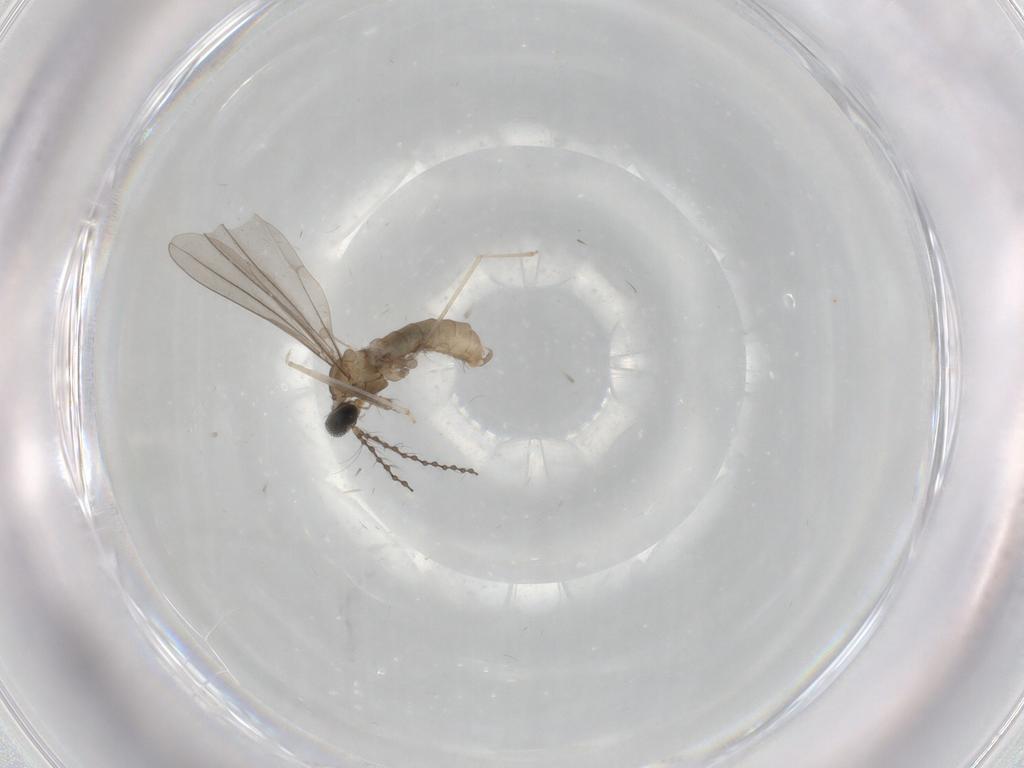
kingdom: Animalia
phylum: Arthropoda
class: Insecta
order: Diptera
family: Cecidomyiidae
